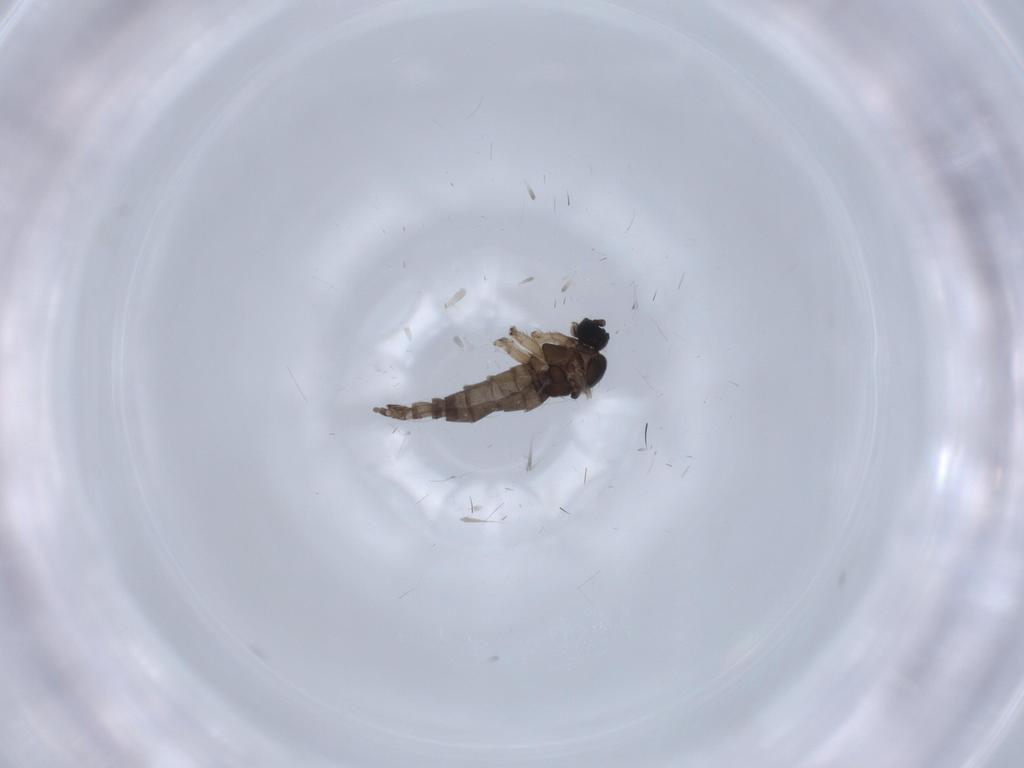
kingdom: Animalia
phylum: Arthropoda
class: Insecta
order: Diptera
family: Sciaridae
